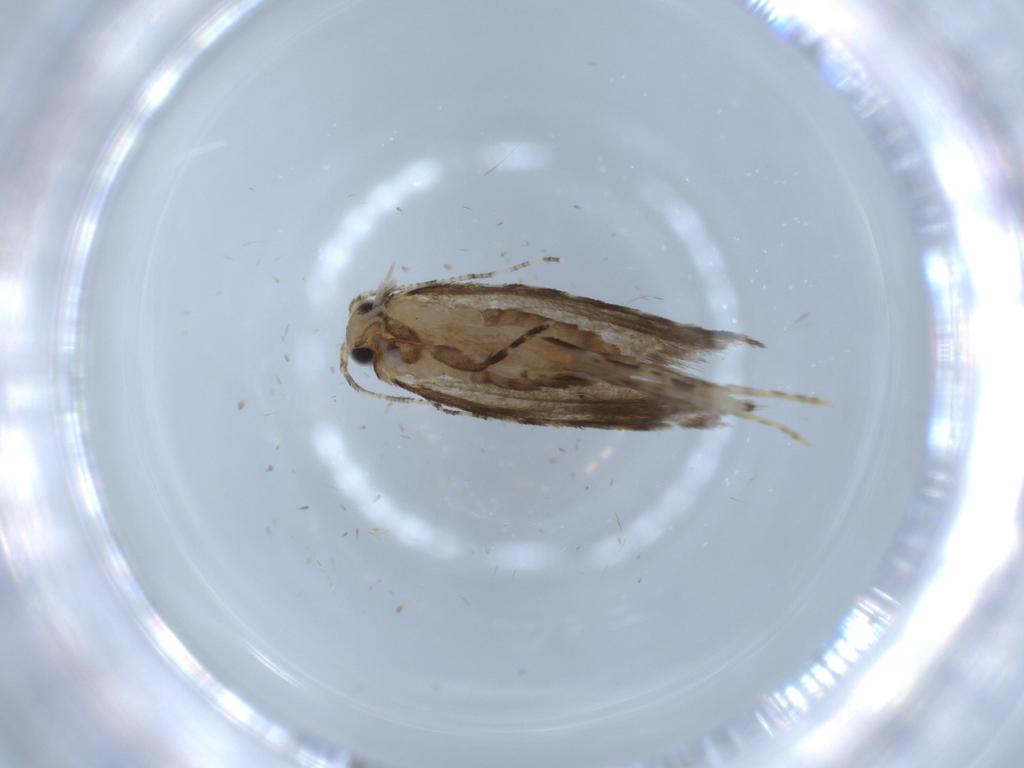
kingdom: Animalia
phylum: Arthropoda
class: Insecta
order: Lepidoptera
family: Tineidae
